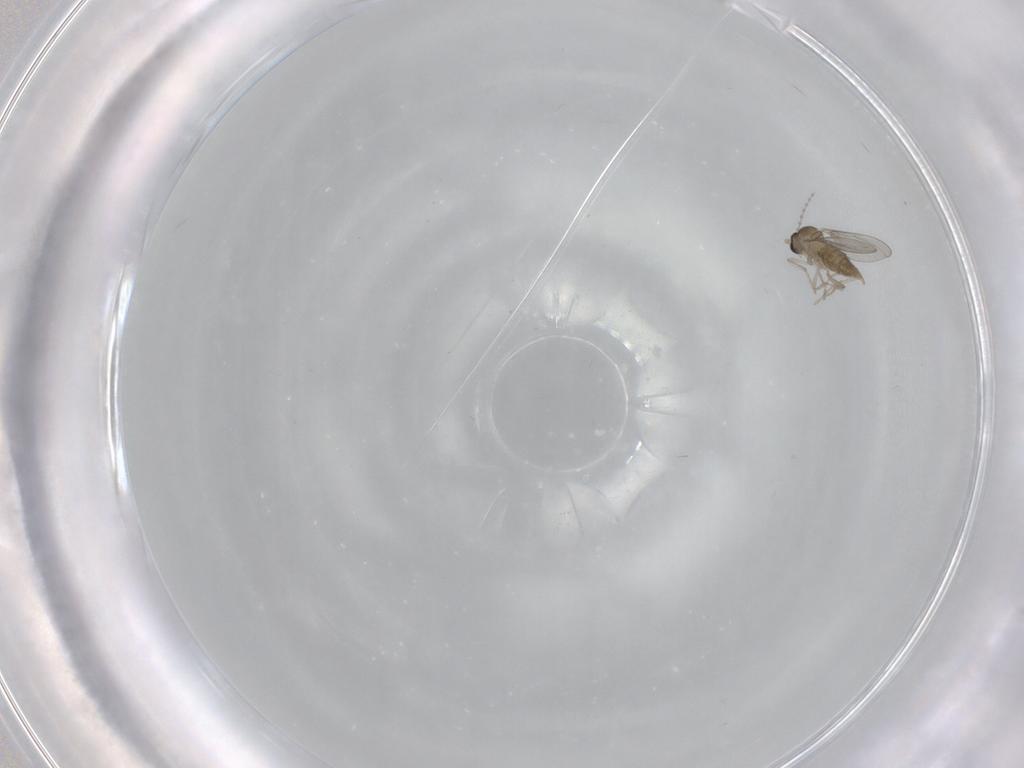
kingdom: Animalia
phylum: Arthropoda
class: Insecta
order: Diptera
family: Cecidomyiidae
